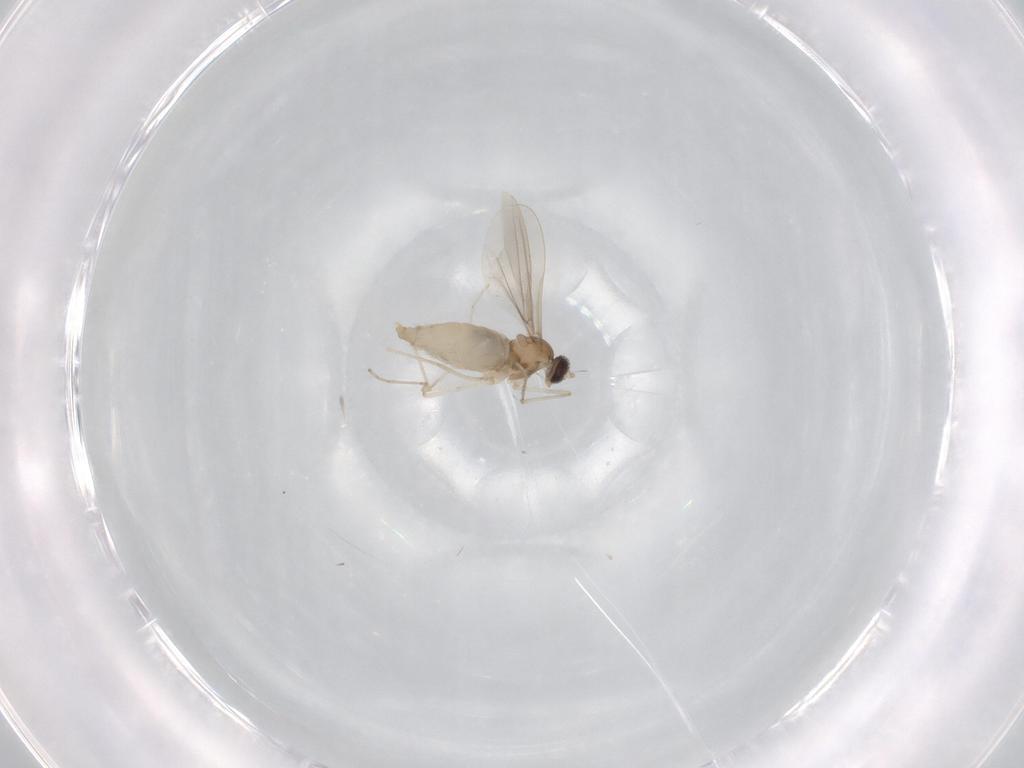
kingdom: Animalia
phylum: Arthropoda
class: Insecta
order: Diptera
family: Cecidomyiidae
